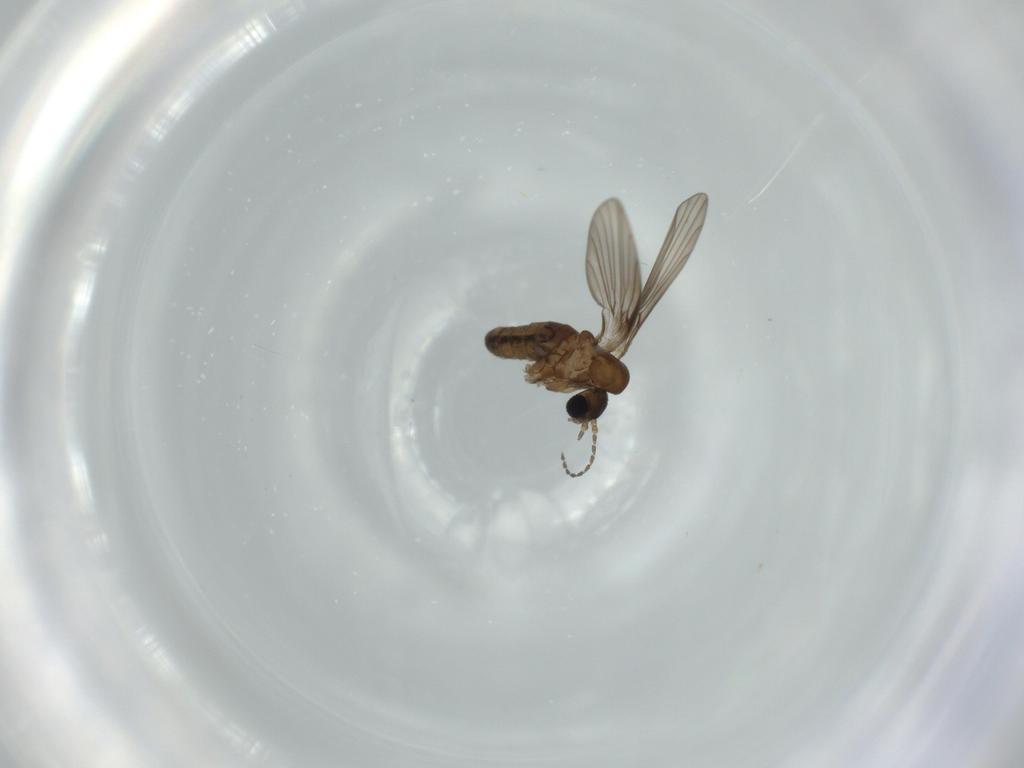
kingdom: Animalia
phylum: Arthropoda
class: Insecta
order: Diptera
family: Psychodidae
